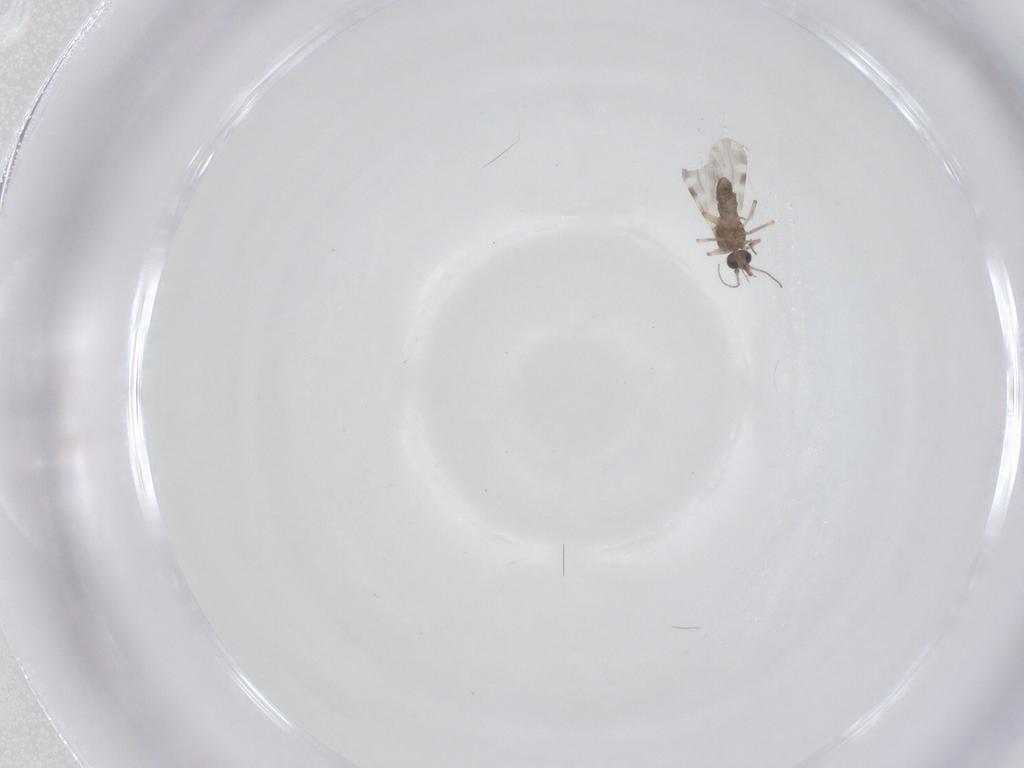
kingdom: Animalia
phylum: Arthropoda
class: Insecta
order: Diptera
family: Ceratopogonidae
